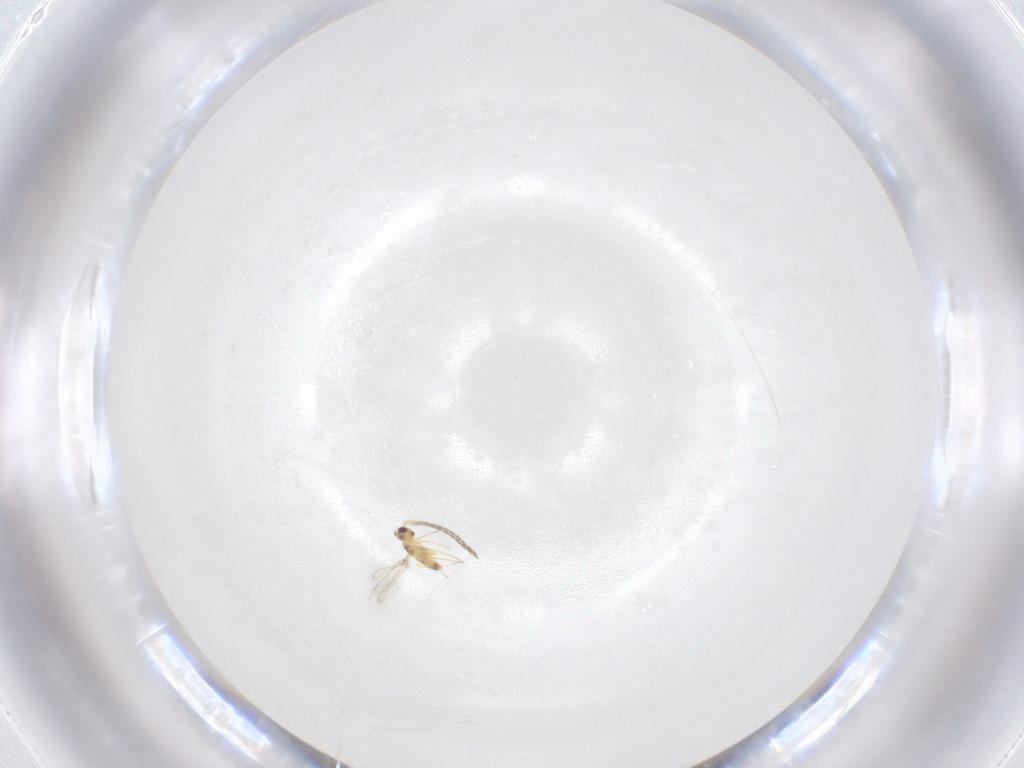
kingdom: Animalia
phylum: Arthropoda
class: Insecta
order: Hymenoptera
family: Mymaridae
